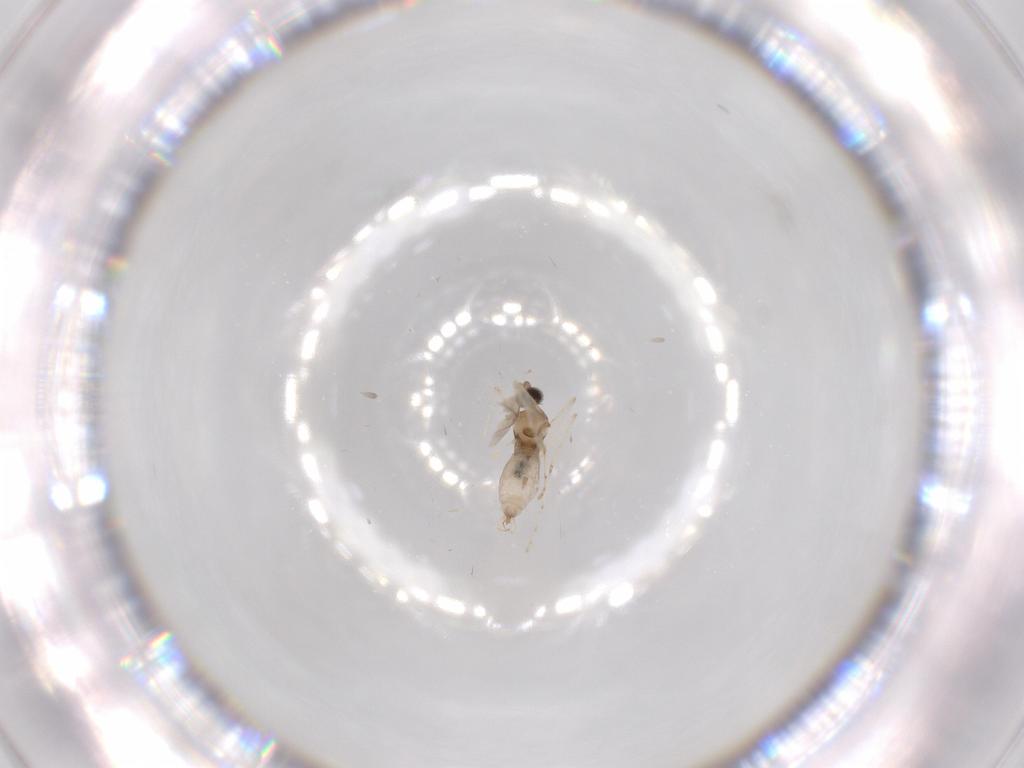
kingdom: Animalia
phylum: Arthropoda
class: Insecta
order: Diptera
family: Cecidomyiidae
